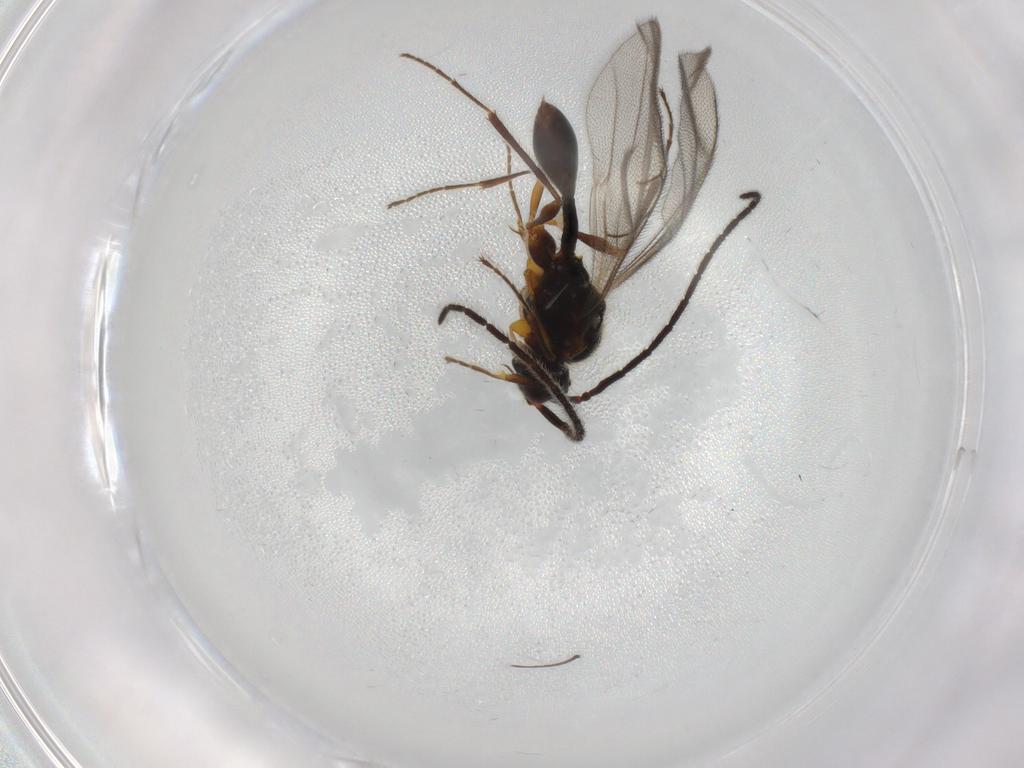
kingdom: Animalia
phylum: Arthropoda
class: Insecta
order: Hymenoptera
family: Diapriidae
